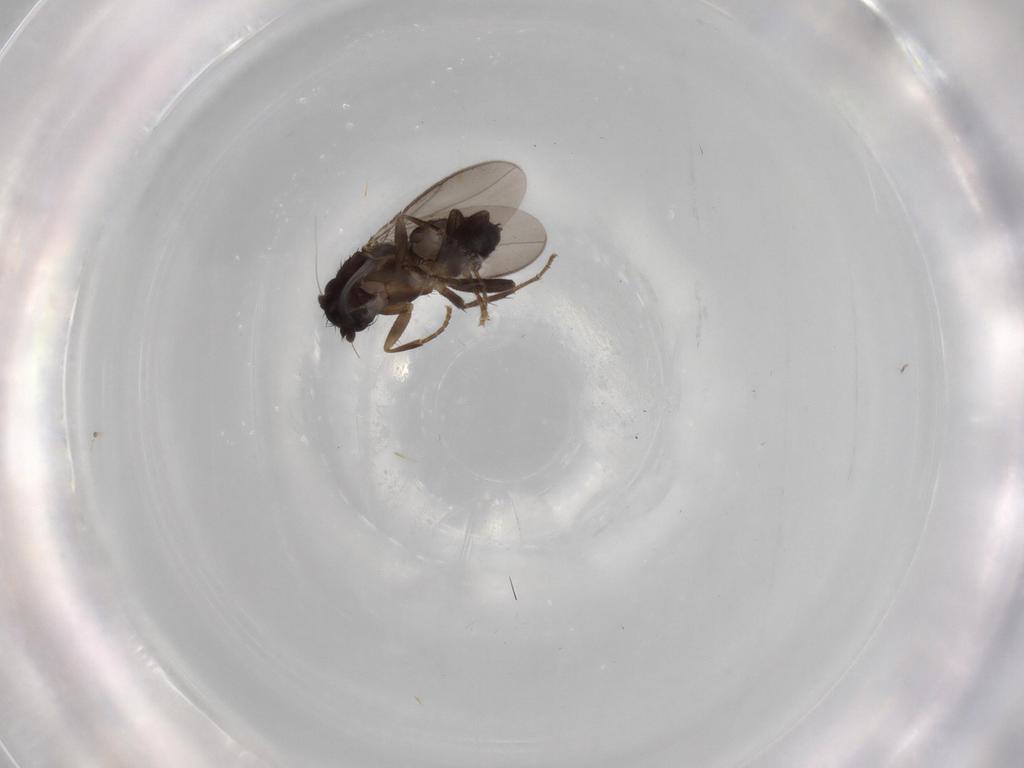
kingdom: Animalia
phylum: Arthropoda
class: Insecta
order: Diptera
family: Sphaeroceridae
